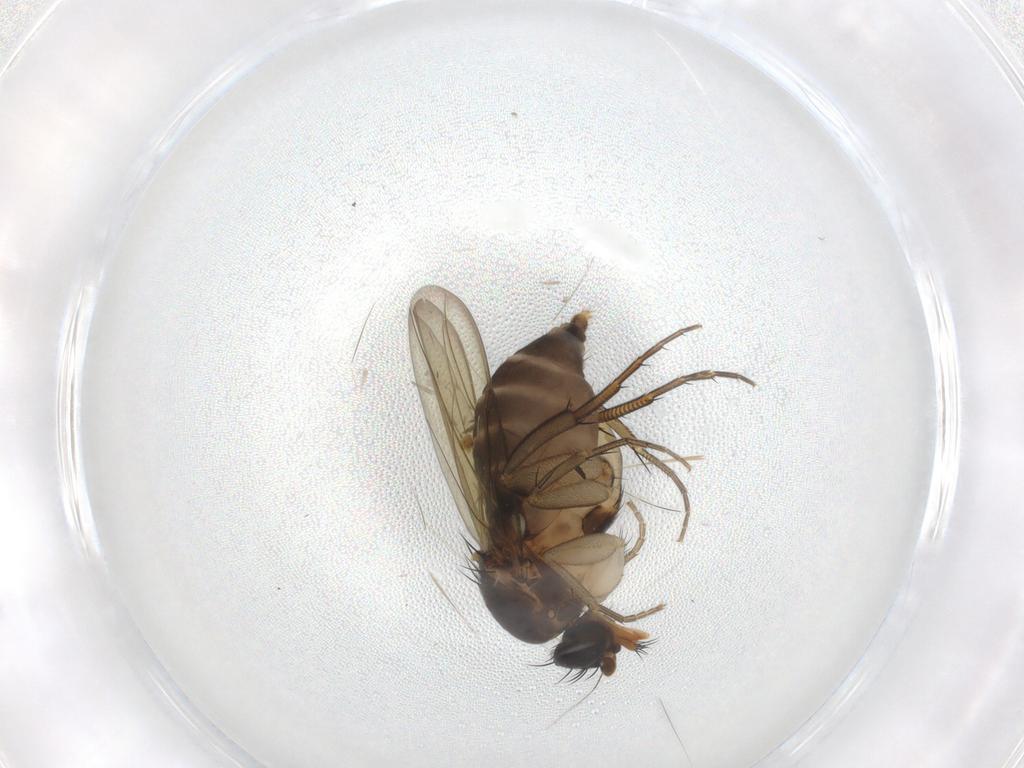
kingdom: Animalia
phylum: Arthropoda
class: Insecta
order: Diptera
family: Phoridae
